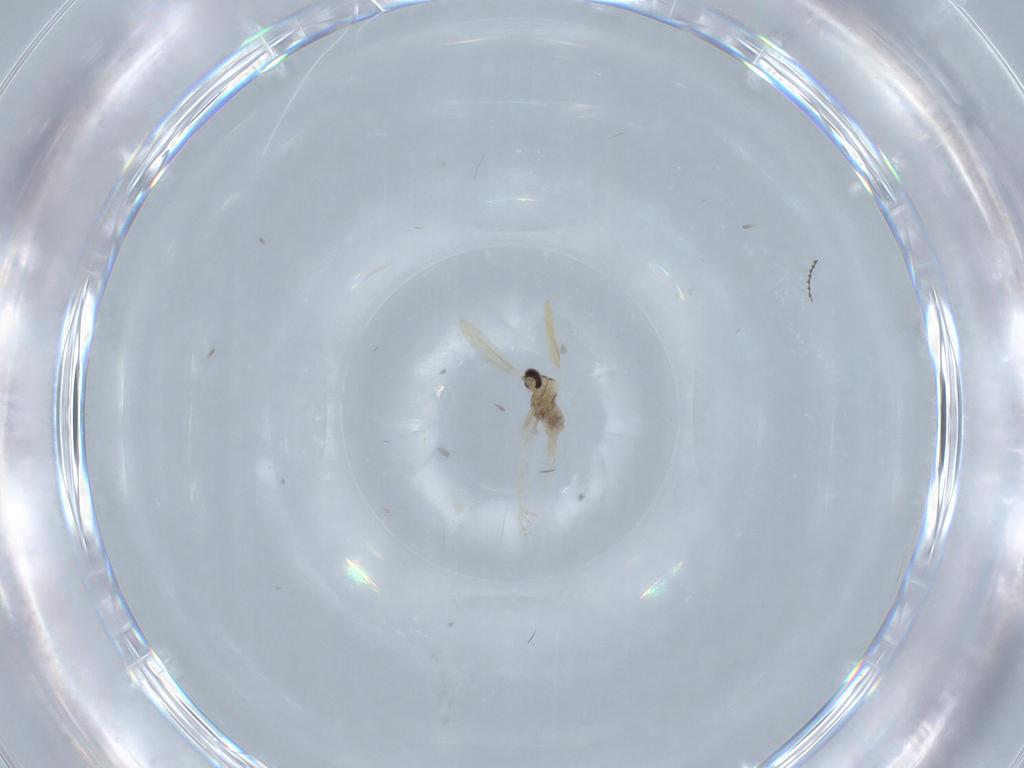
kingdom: Animalia
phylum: Arthropoda
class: Insecta
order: Diptera
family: Cecidomyiidae
